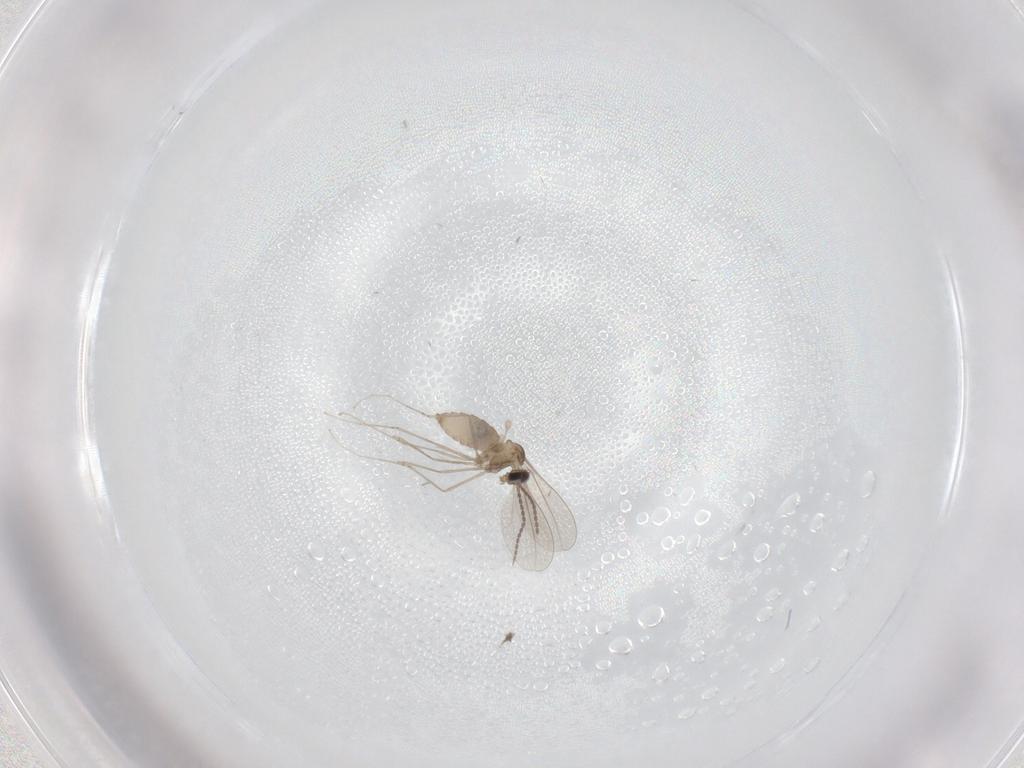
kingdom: Animalia
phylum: Arthropoda
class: Insecta
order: Diptera
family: Cecidomyiidae
